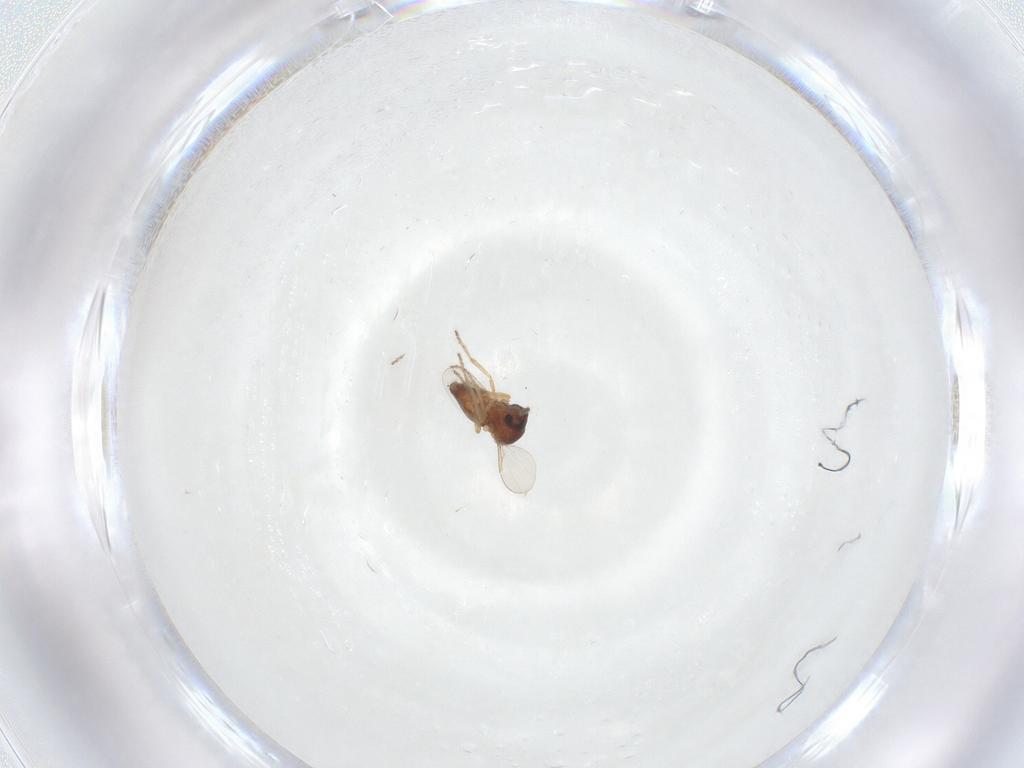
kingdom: Animalia
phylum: Arthropoda
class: Insecta
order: Diptera
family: Ceratopogonidae
